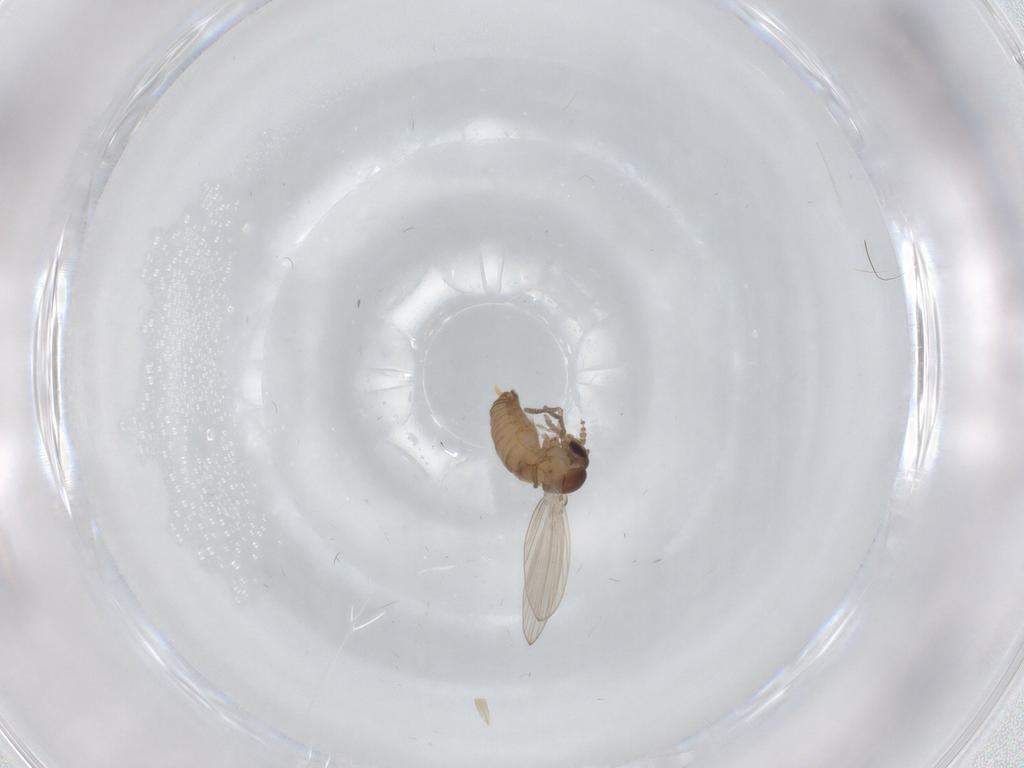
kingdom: Animalia
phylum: Arthropoda
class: Insecta
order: Diptera
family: Psychodidae
